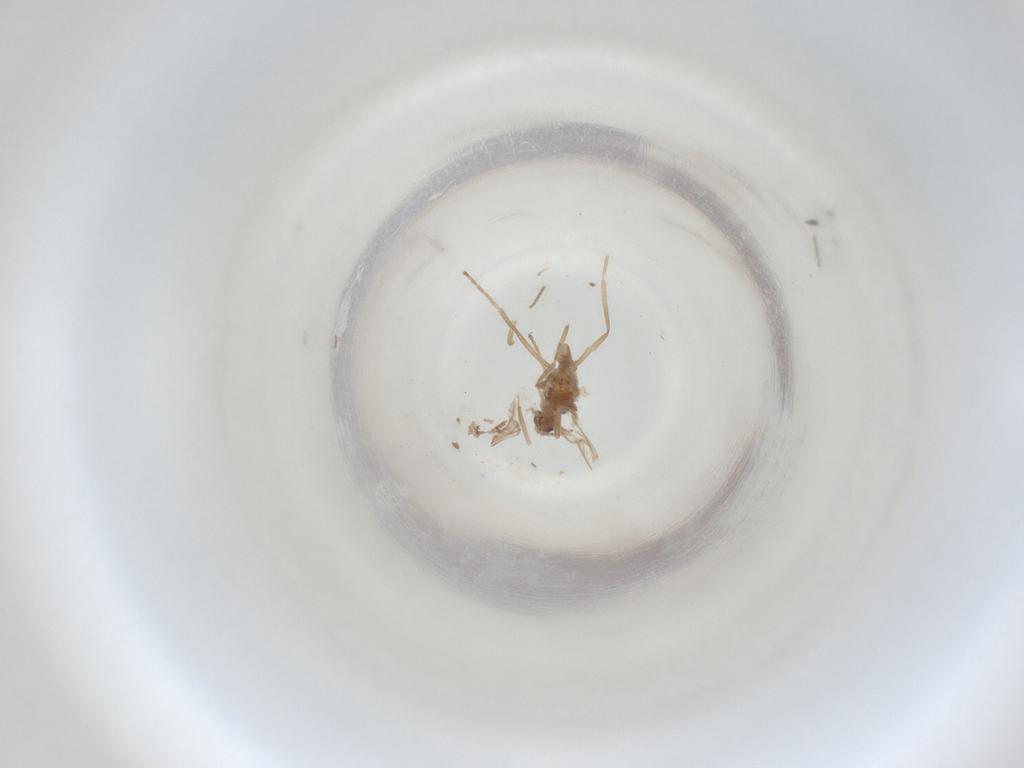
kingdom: Animalia
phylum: Arthropoda
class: Insecta
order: Diptera
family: Cecidomyiidae
